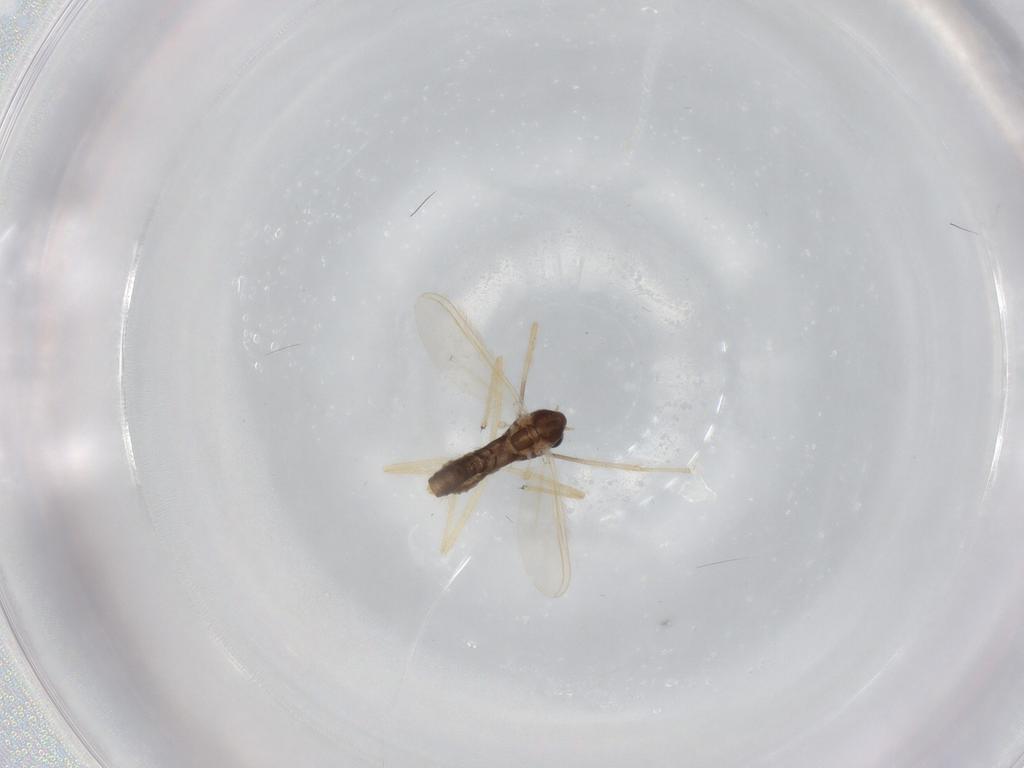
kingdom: Animalia
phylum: Arthropoda
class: Insecta
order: Diptera
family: Chironomidae
